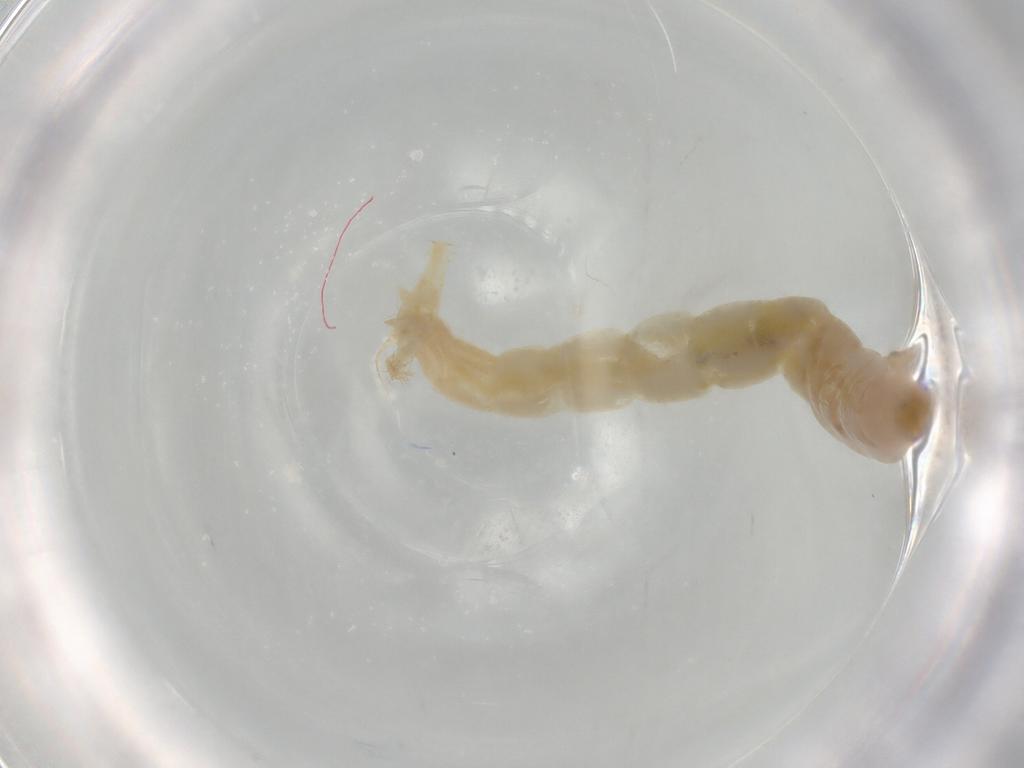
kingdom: Animalia
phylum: Arthropoda
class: Insecta
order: Diptera
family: Chironomidae
